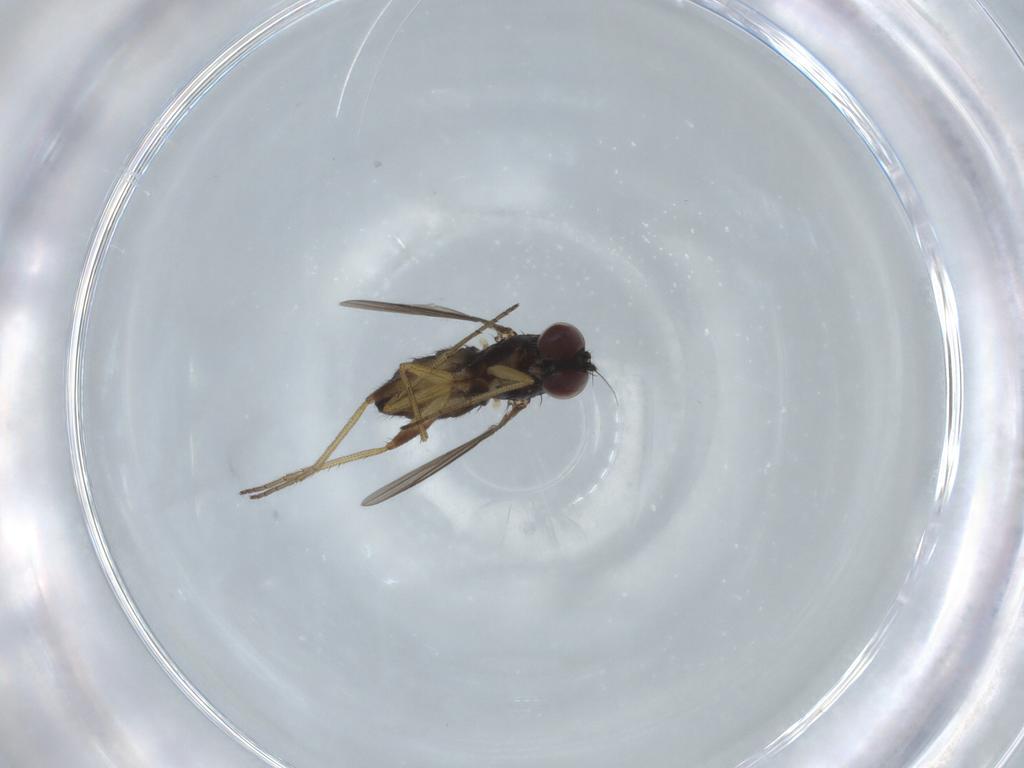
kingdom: Animalia
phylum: Arthropoda
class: Insecta
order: Diptera
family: Dolichopodidae
